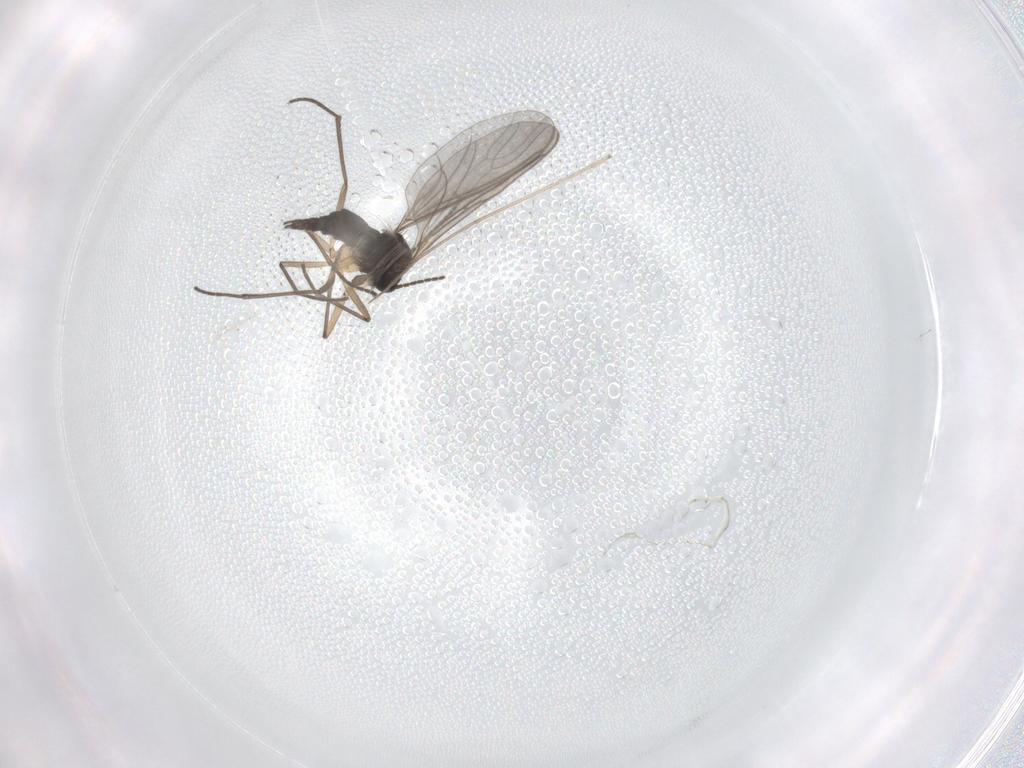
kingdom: Animalia
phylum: Arthropoda
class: Insecta
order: Diptera
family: Sciaridae
